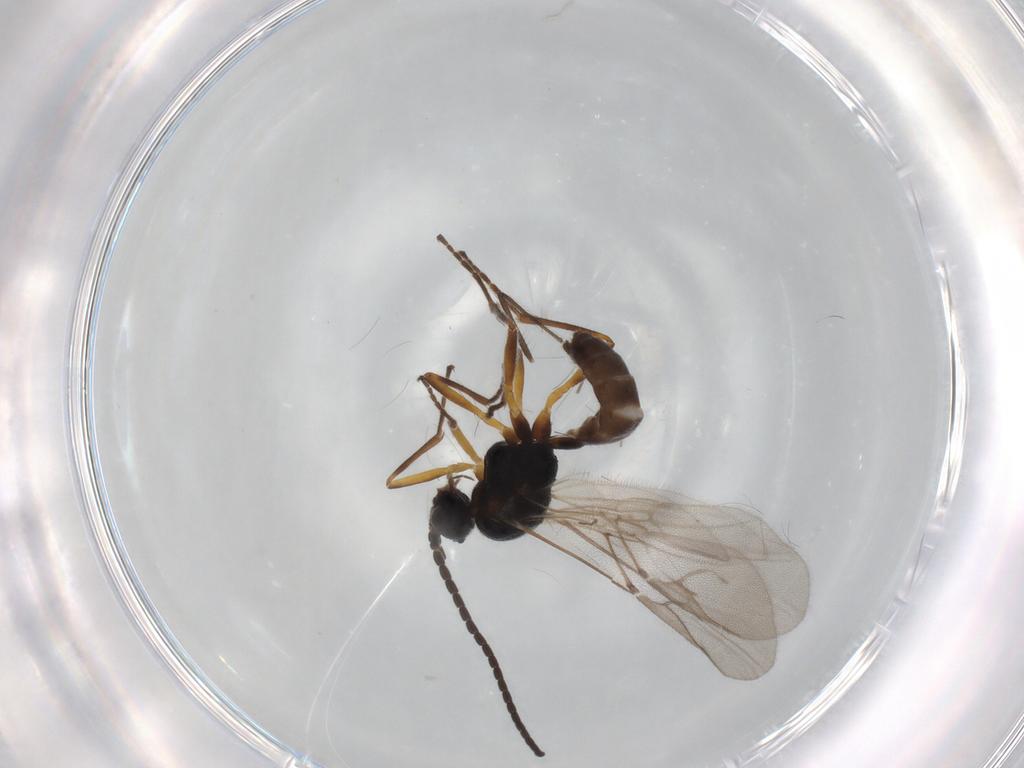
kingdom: Animalia
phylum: Arthropoda
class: Insecta
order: Hymenoptera
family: Braconidae
